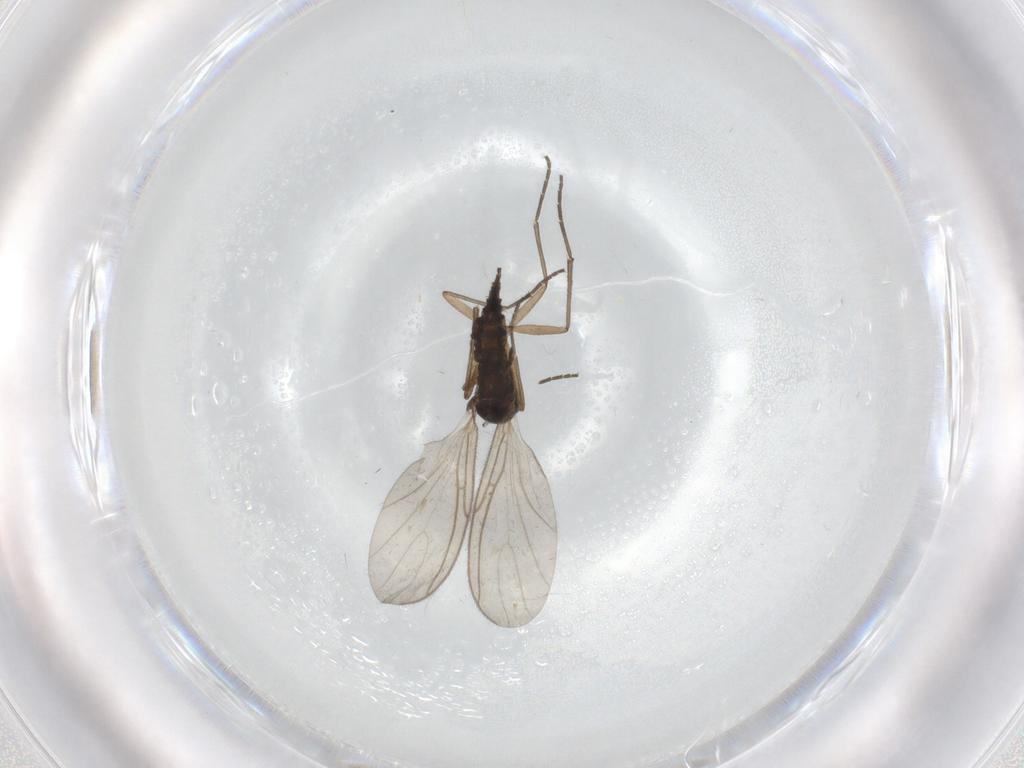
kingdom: Animalia
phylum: Arthropoda
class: Insecta
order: Diptera
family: Sciaridae
